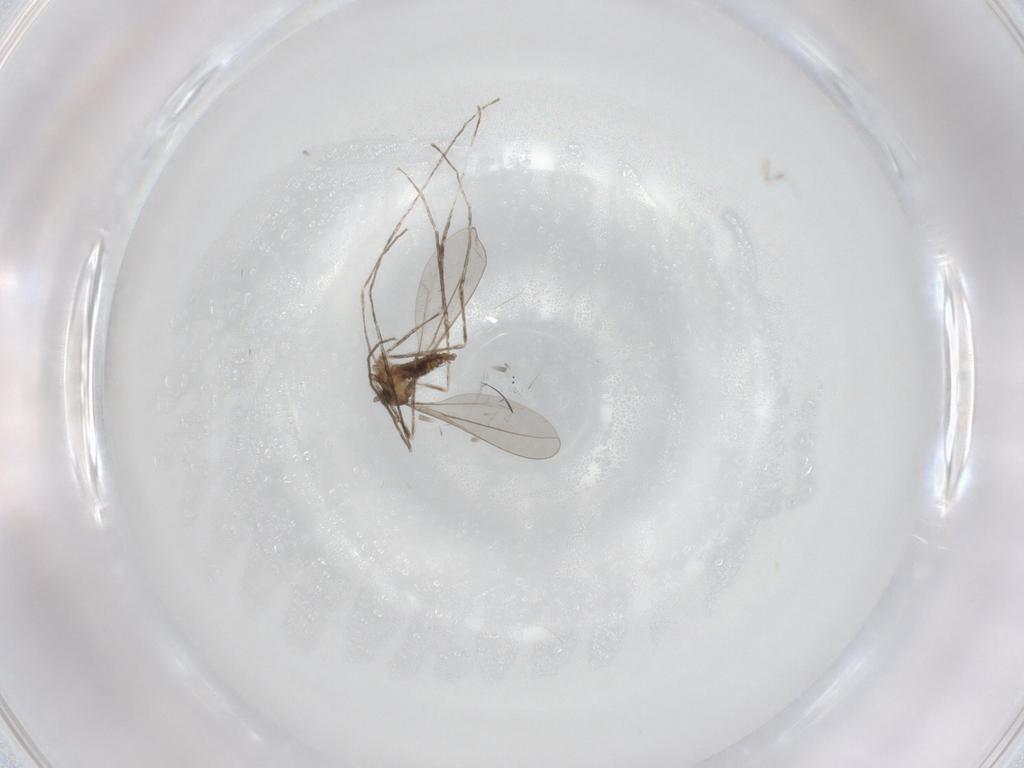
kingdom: Animalia
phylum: Arthropoda
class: Insecta
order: Diptera
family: Cecidomyiidae
